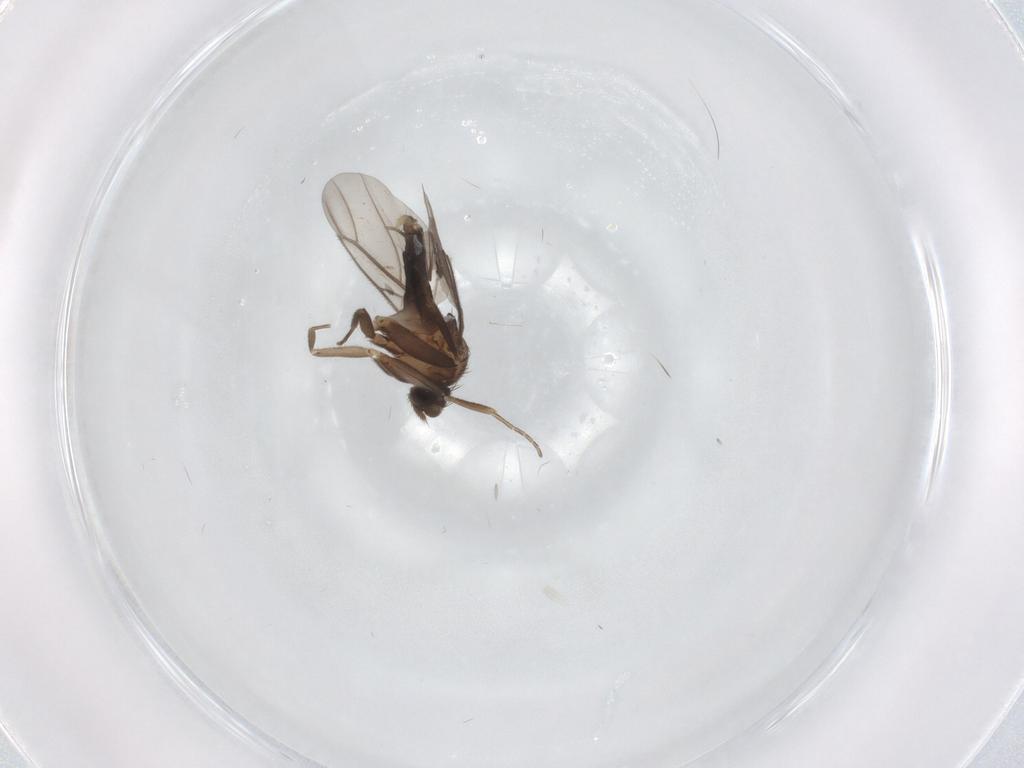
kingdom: Animalia
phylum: Arthropoda
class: Insecta
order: Diptera
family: Phoridae
